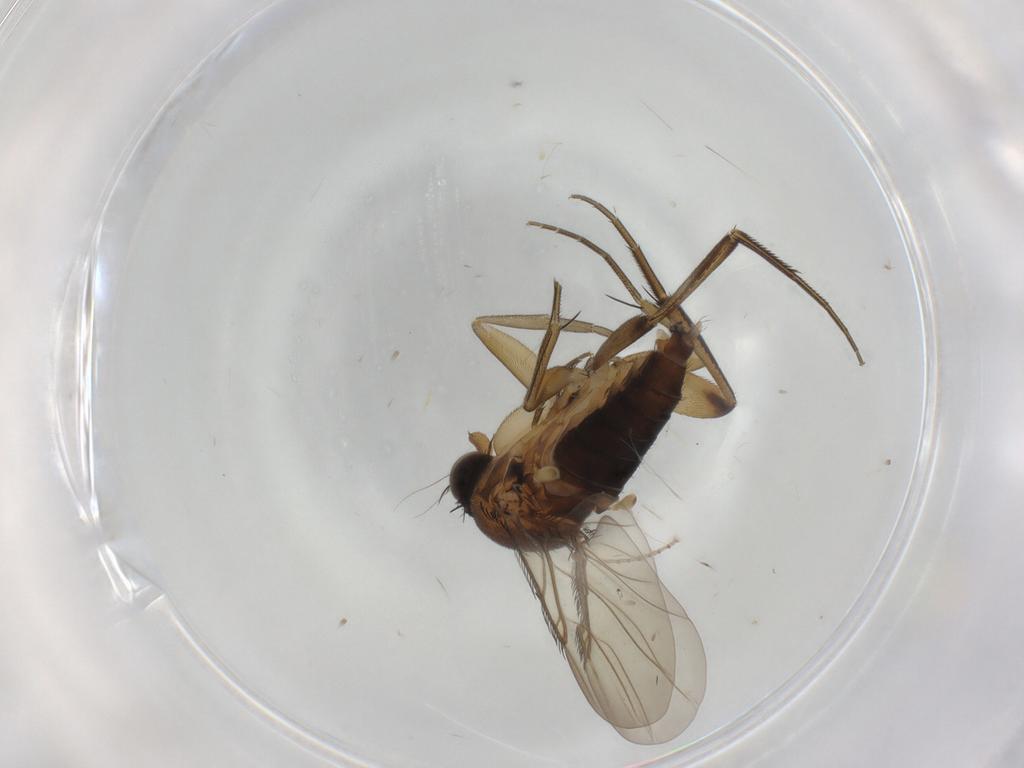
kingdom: Animalia
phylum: Arthropoda
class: Insecta
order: Diptera
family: Phoridae
